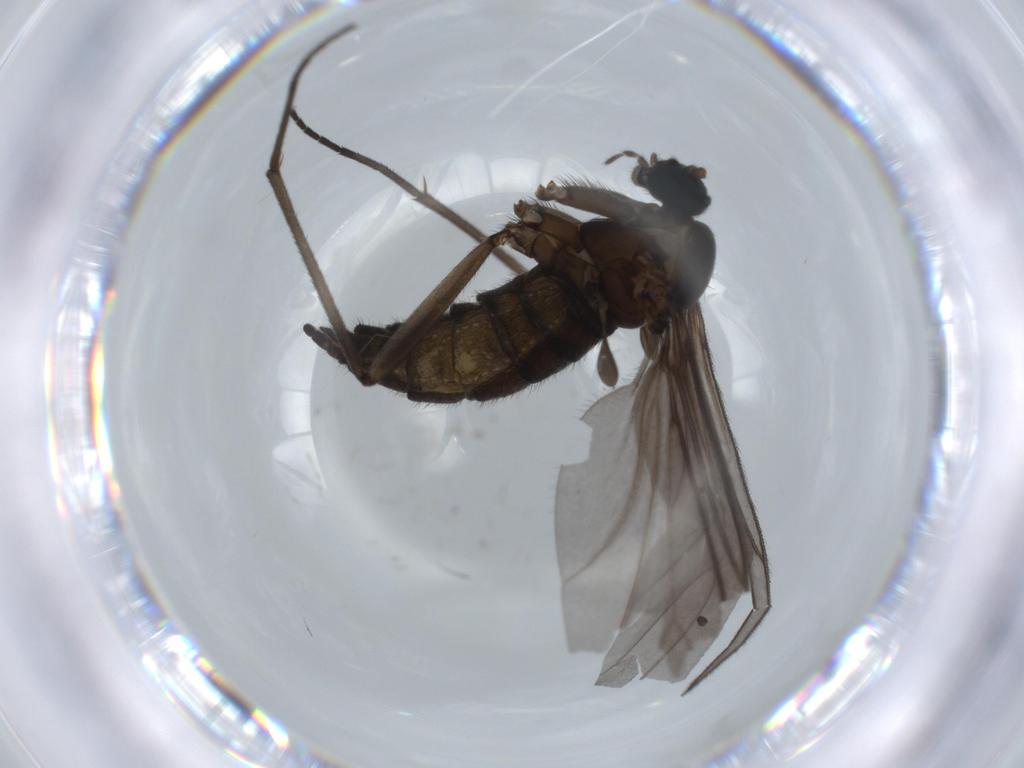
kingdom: Animalia
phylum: Arthropoda
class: Insecta
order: Diptera
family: Sciaridae
